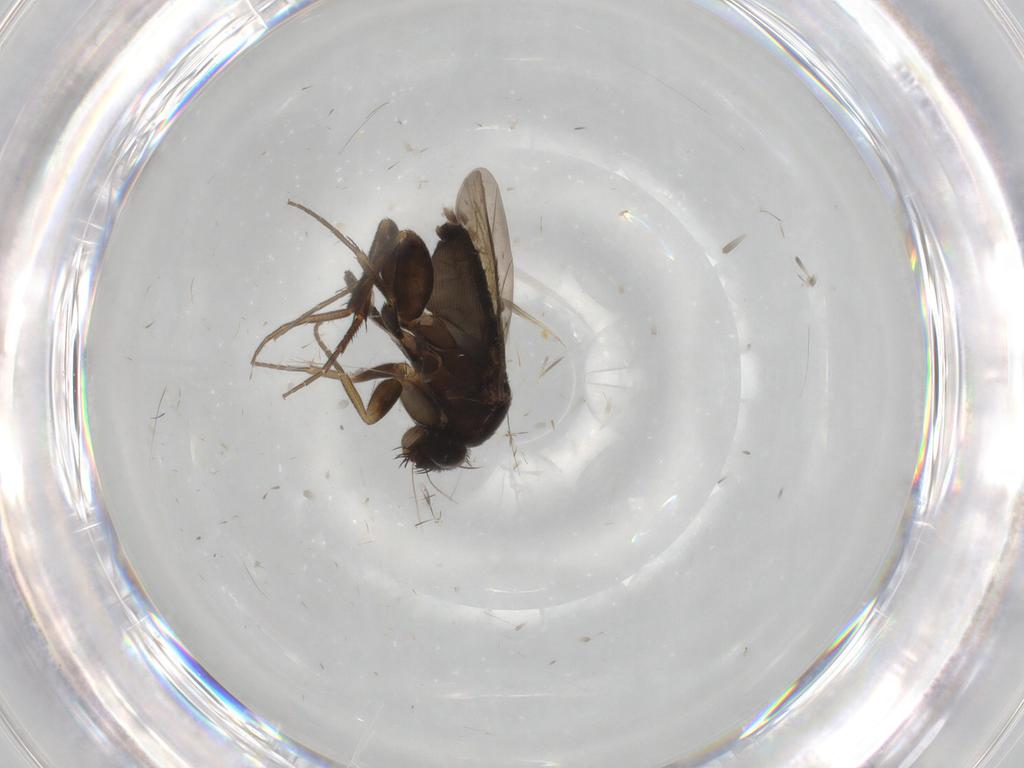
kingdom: Animalia
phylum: Arthropoda
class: Insecta
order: Diptera
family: Phoridae
